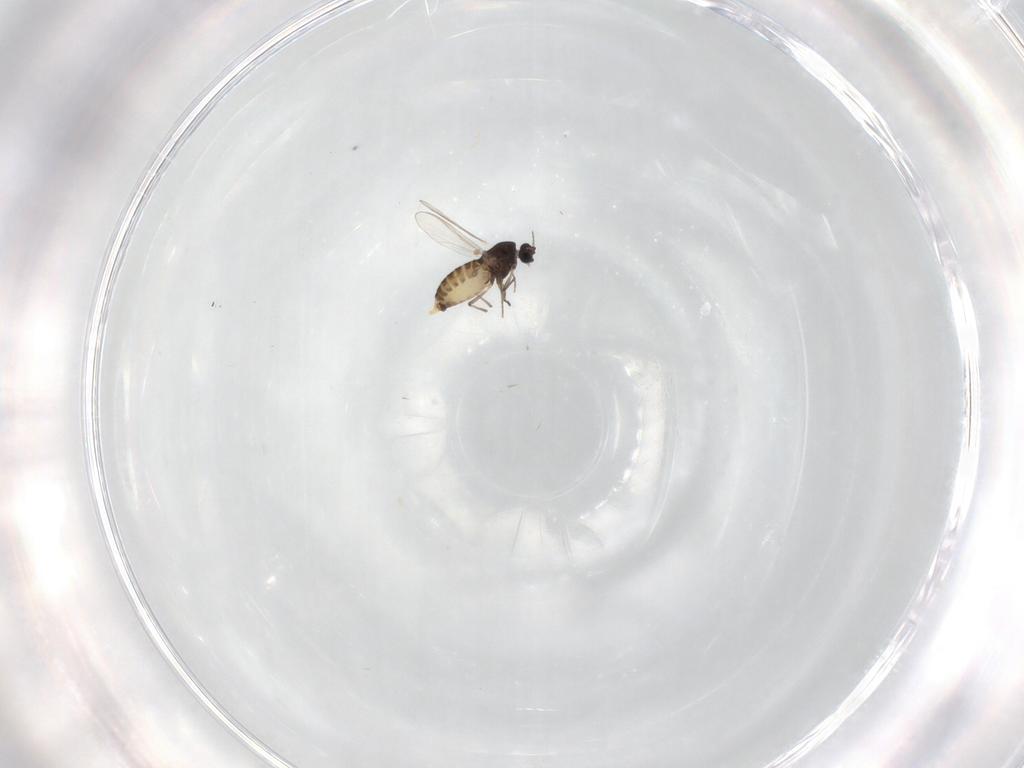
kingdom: Animalia
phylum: Arthropoda
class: Insecta
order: Diptera
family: Chironomidae
